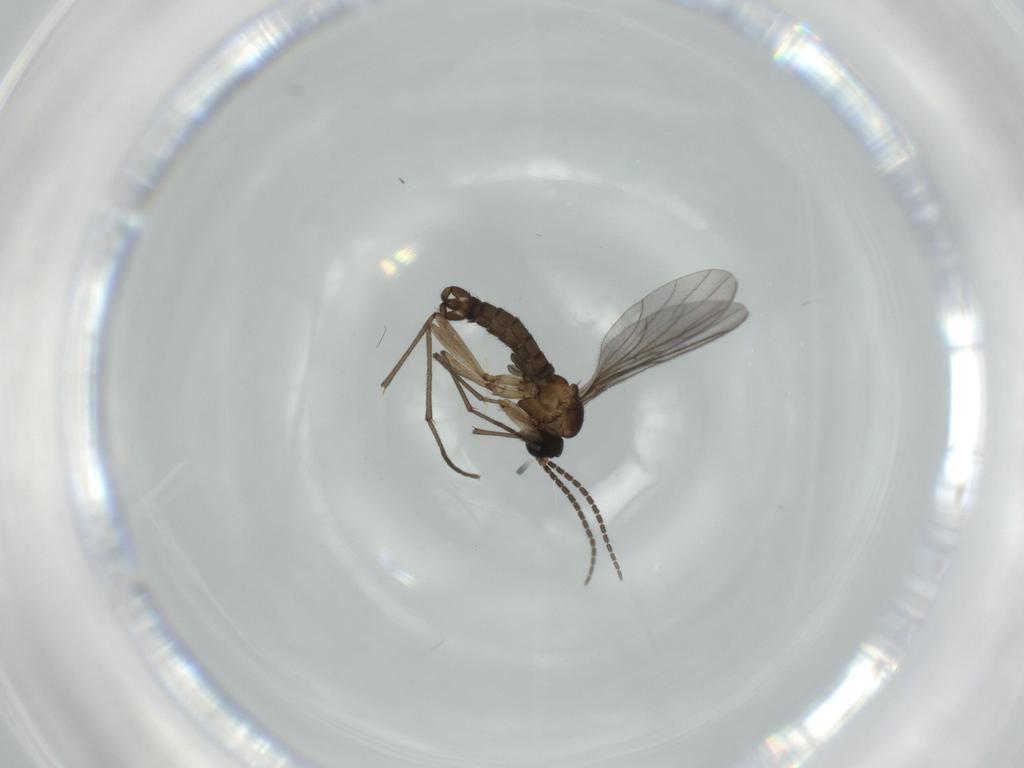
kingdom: Animalia
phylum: Arthropoda
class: Insecta
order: Diptera
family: Sciaridae
